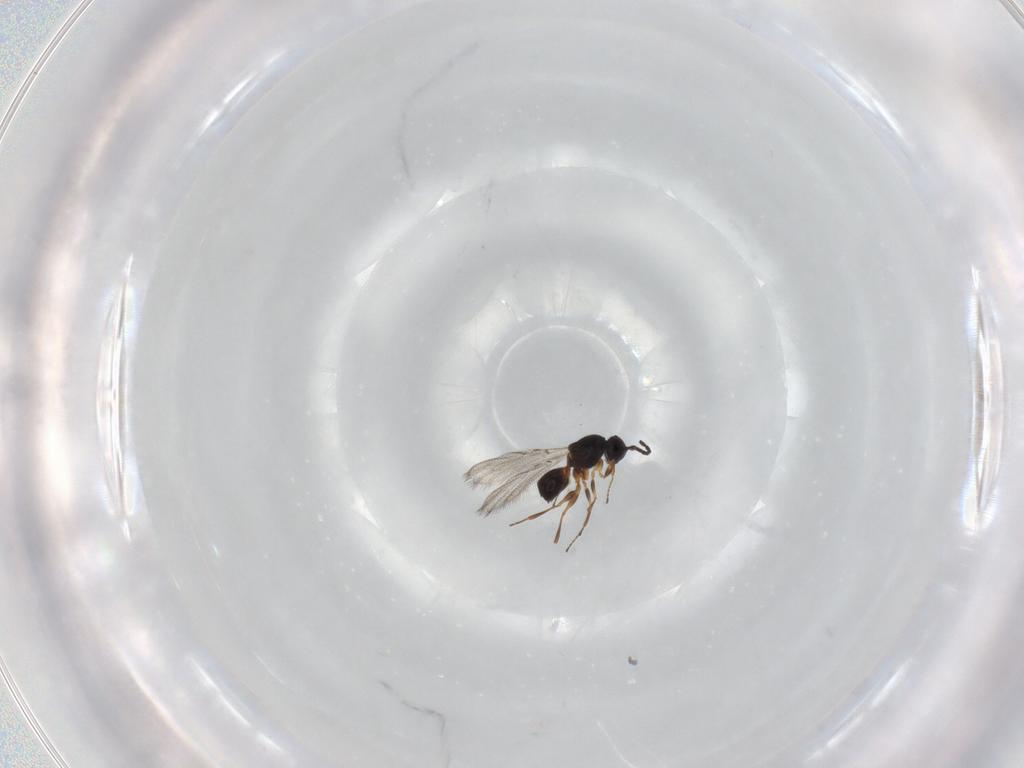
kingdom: Animalia
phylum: Arthropoda
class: Insecta
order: Hymenoptera
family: Figitidae
